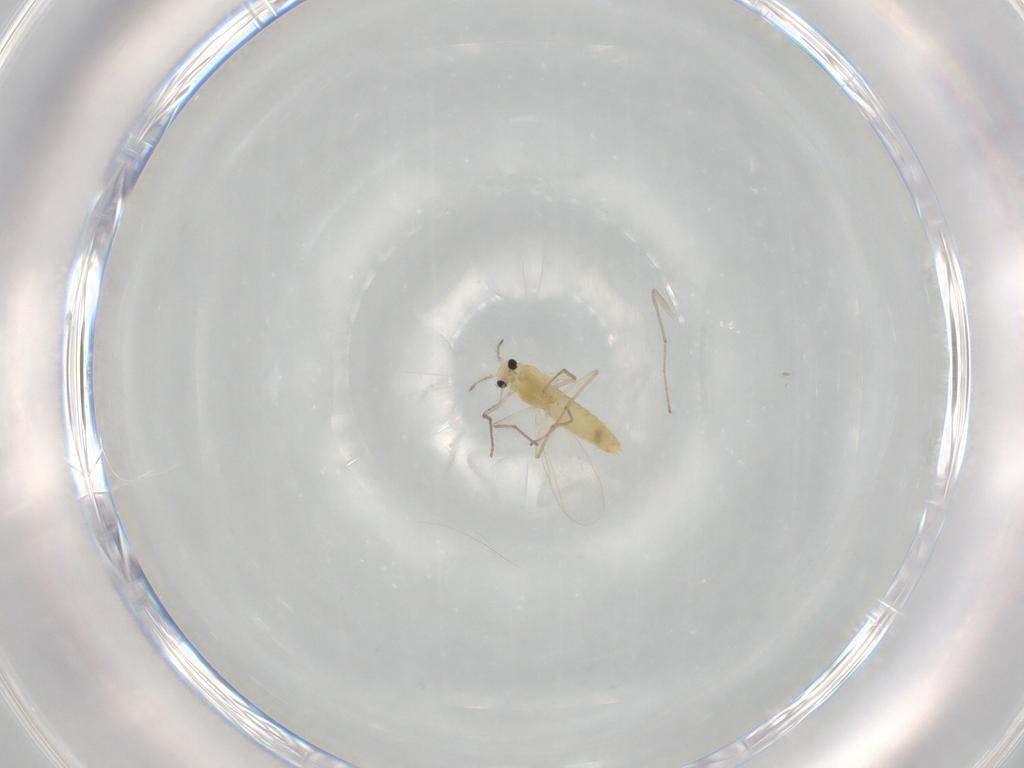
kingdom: Animalia
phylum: Arthropoda
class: Insecta
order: Diptera
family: Chironomidae
